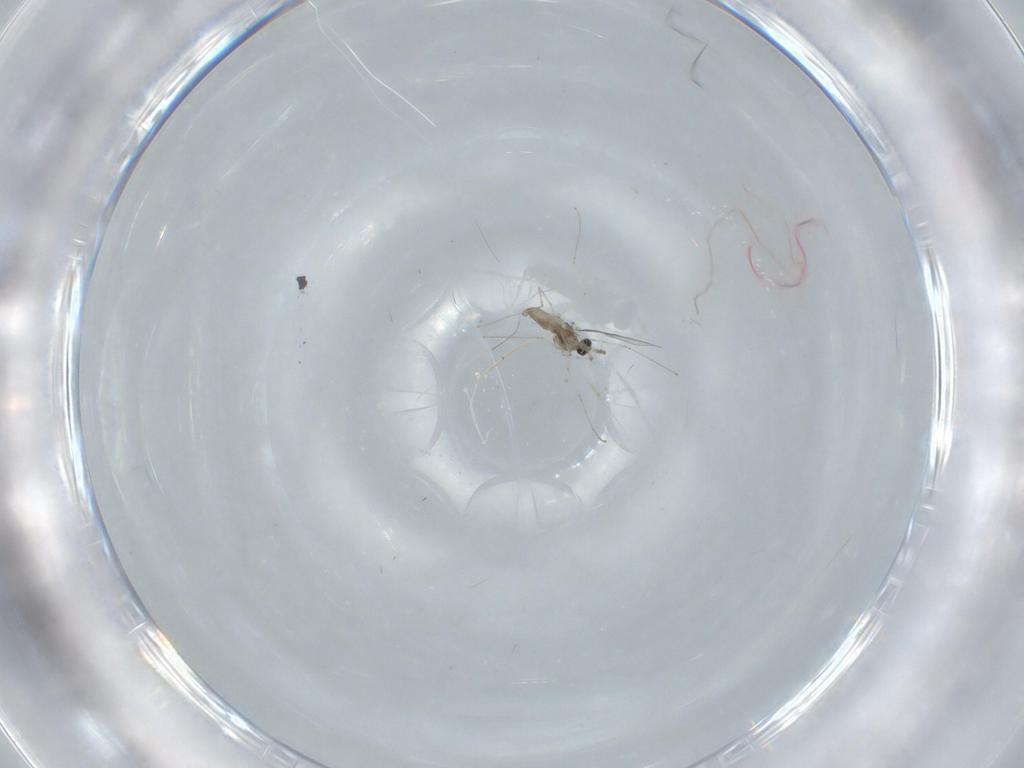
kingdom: Animalia
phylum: Arthropoda
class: Insecta
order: Diptera
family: Cecidomyiidae
